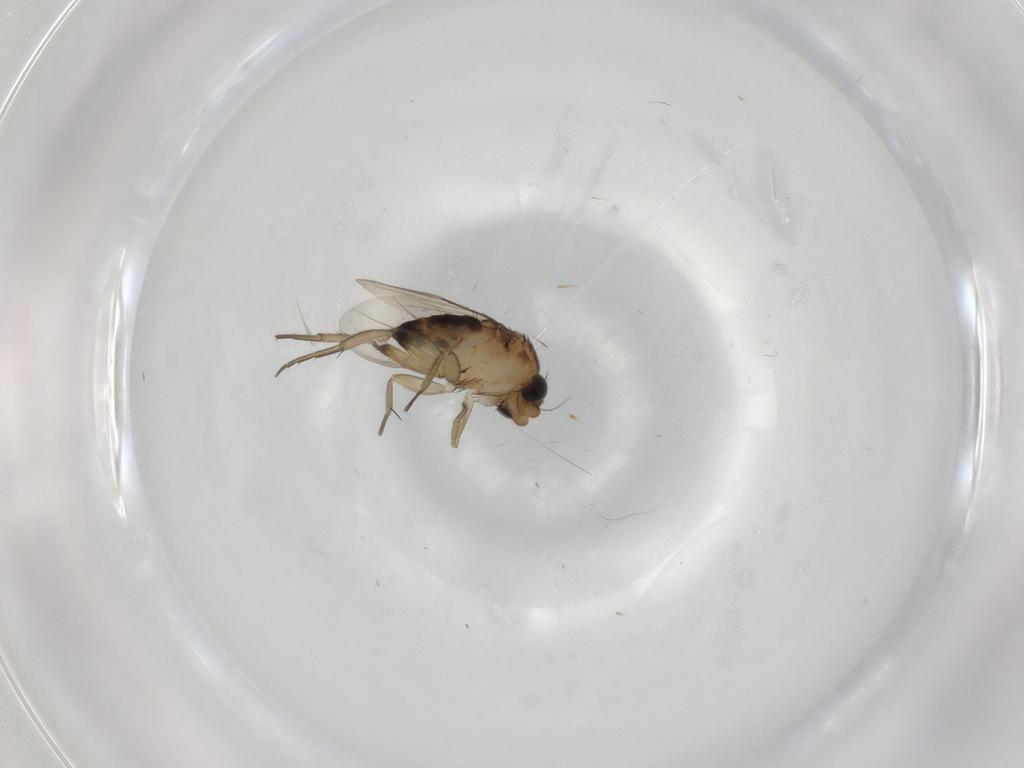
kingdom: Animalia
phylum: Arthropoda
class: Insecta
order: Diptera
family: Phoridae
